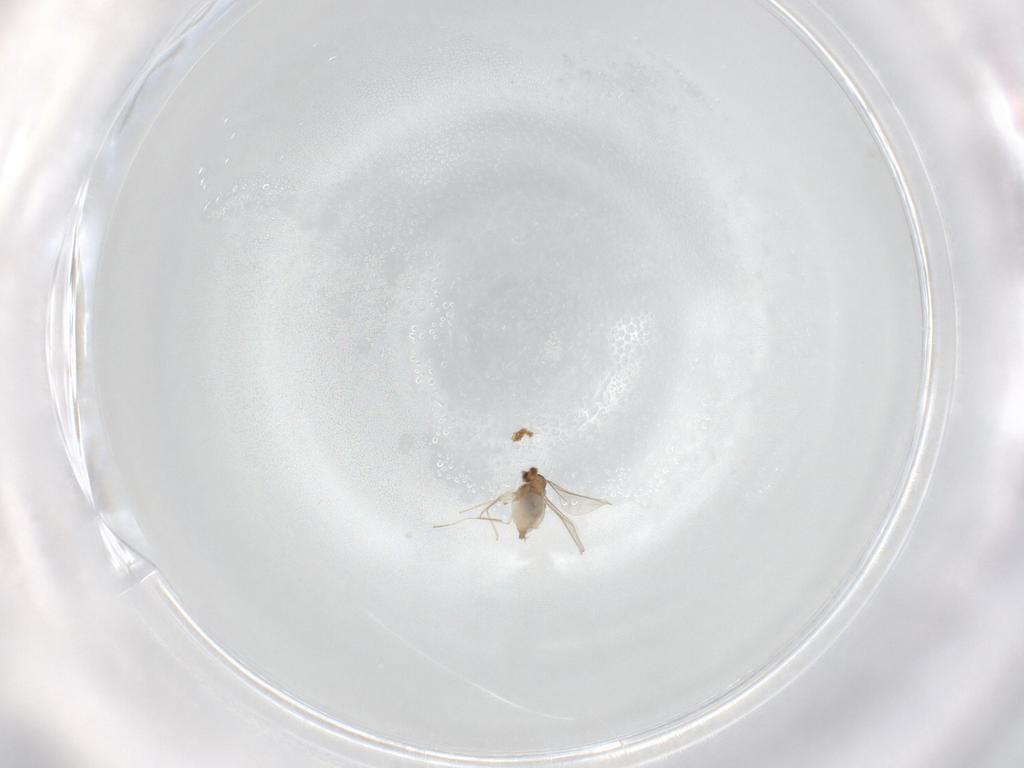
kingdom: Animalia
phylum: Arthropoda
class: Insecta
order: Diptera
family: Cecidomyiidae
